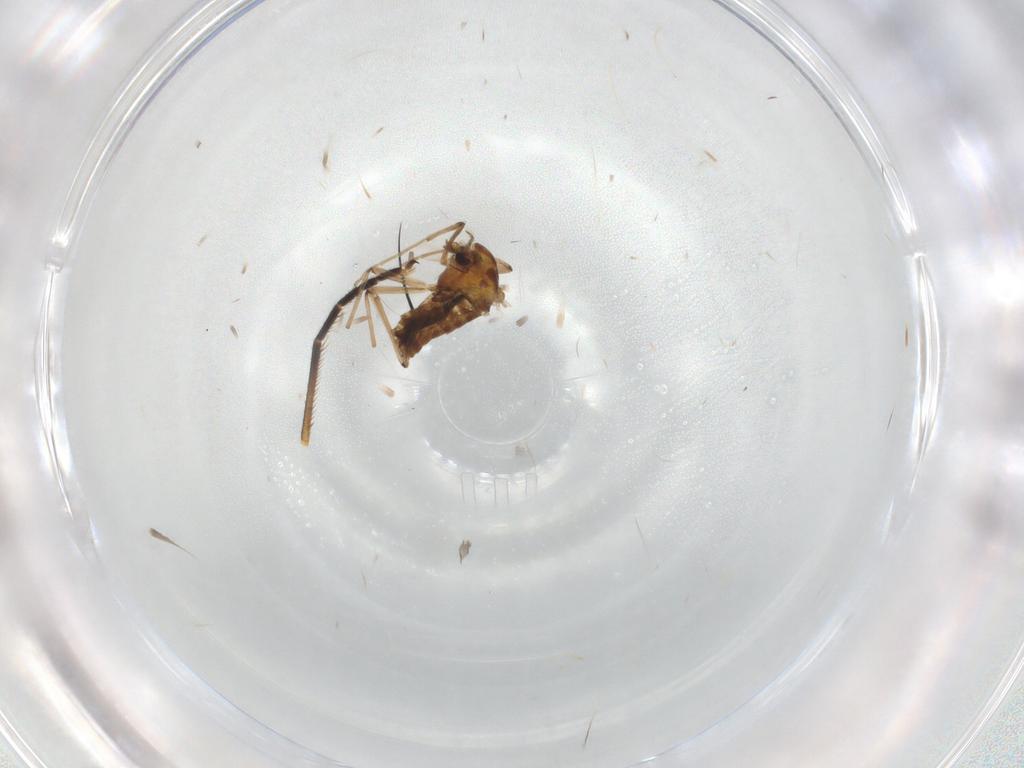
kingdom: Animalia
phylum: Arthropoda
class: Insecta
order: Diptera
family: Bombyliidae
